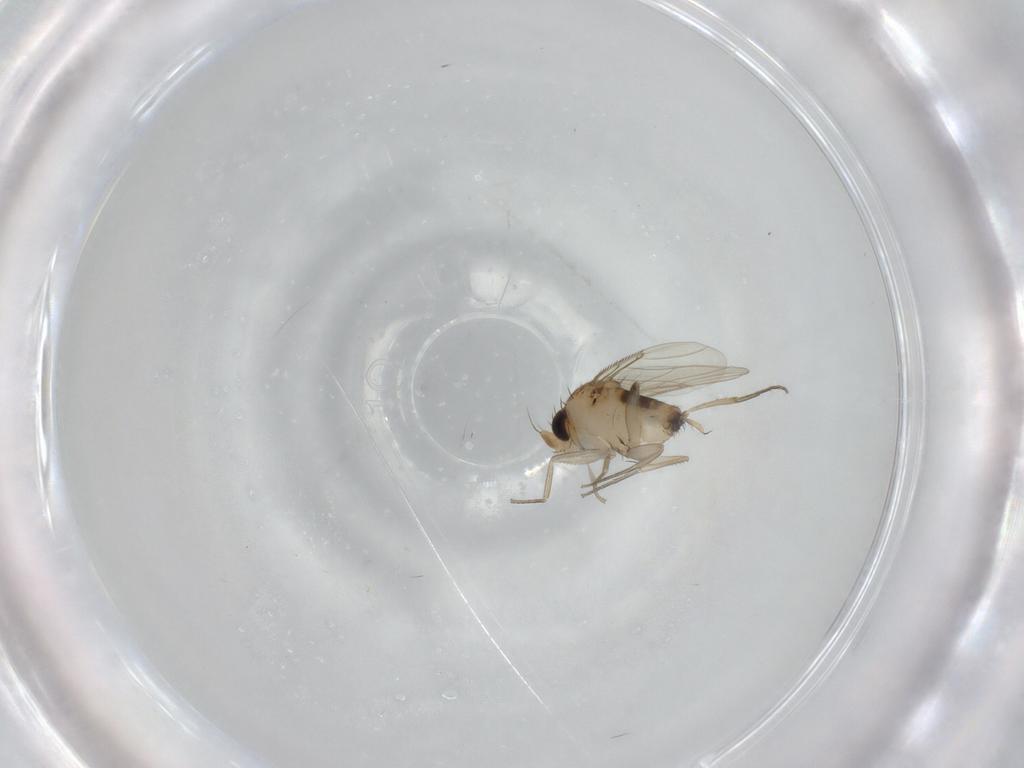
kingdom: Animalia
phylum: Arthropoda
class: Insecta
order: Diptera
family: Phoridae
